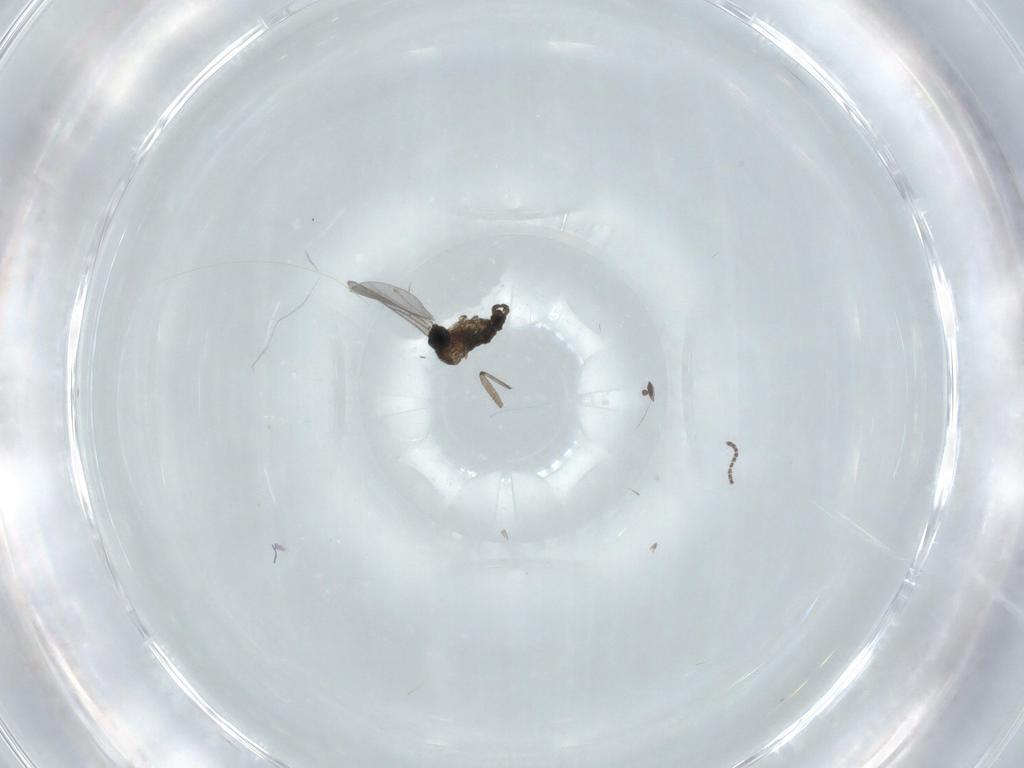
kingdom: Animalia
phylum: Arthropoda
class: Insecta
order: Diptera
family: Ceratopogonidae
